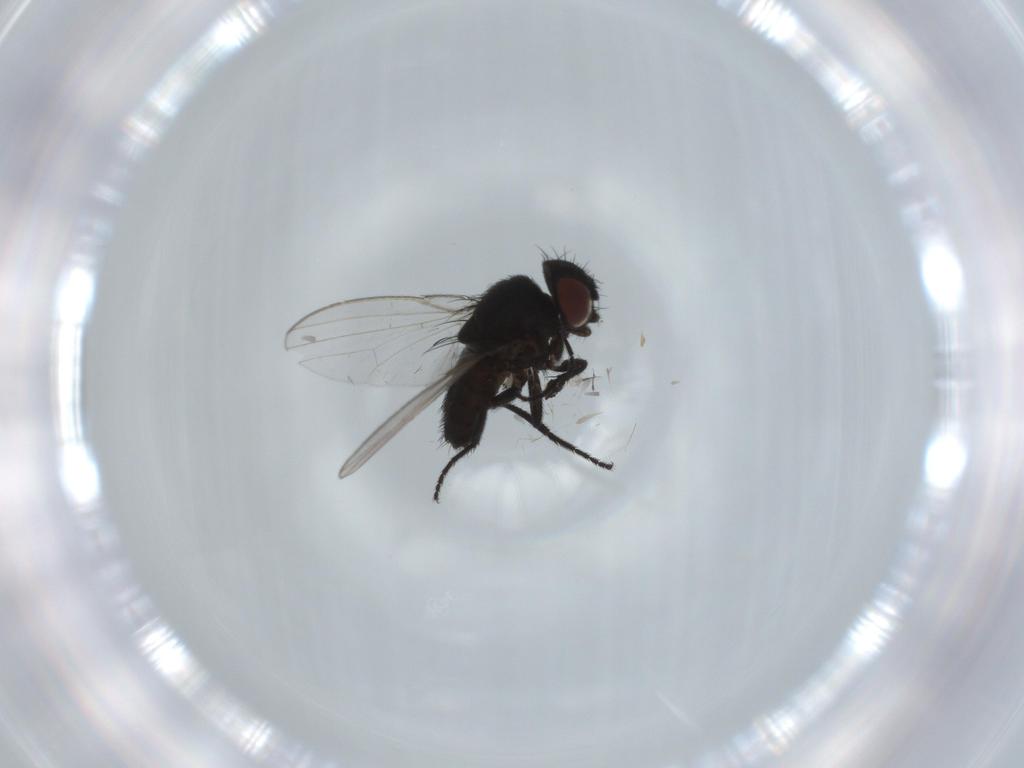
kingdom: Animalia
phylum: Arthropoda
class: Insecta
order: Diptera
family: Milichiidae
